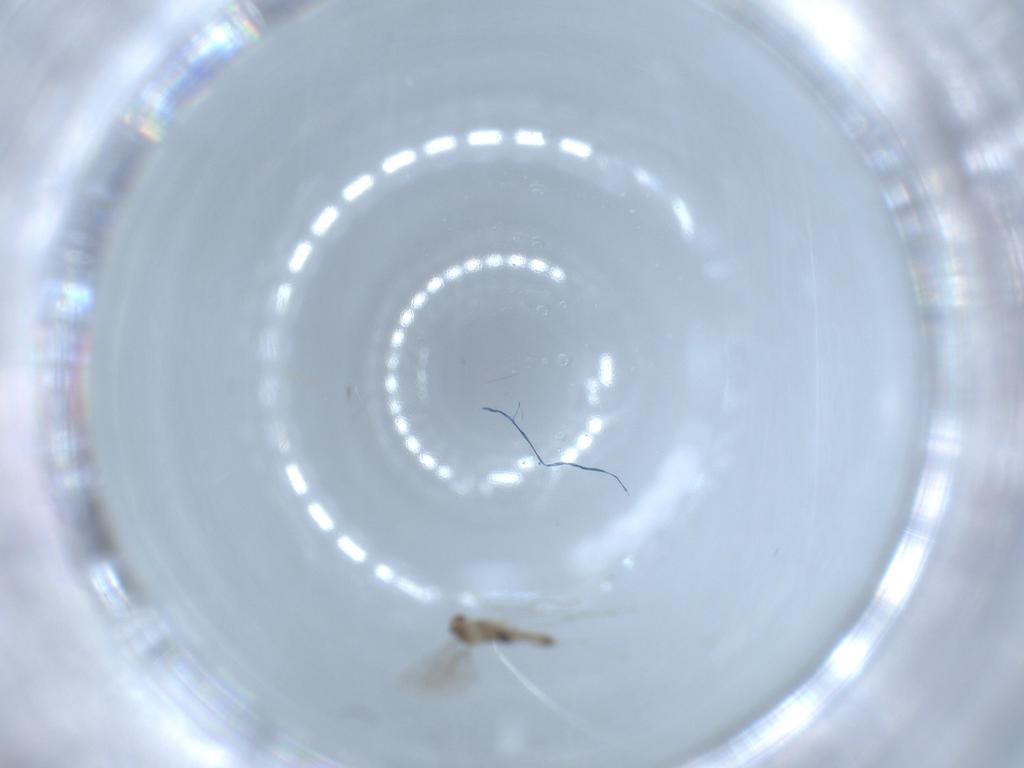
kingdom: Animalia
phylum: Arthropoda
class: Insecta
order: Diptera
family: Cecidomyiidae
